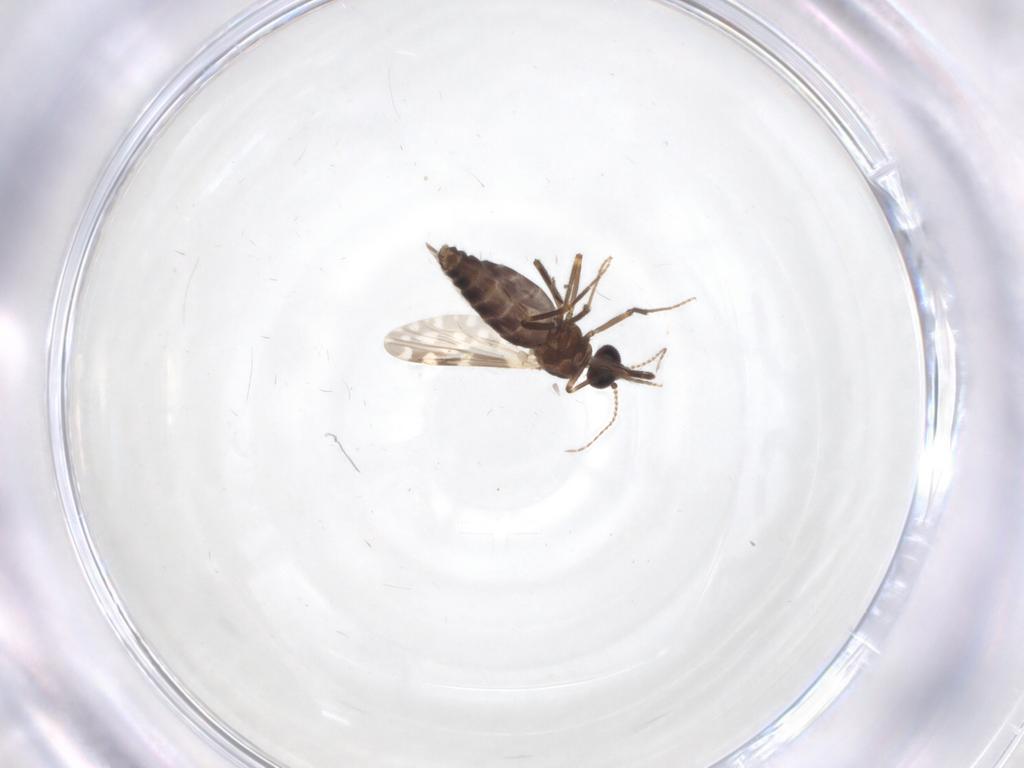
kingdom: Animalia
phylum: Arthropoda
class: Insecta
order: Diptera
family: Ceratopogonidae
